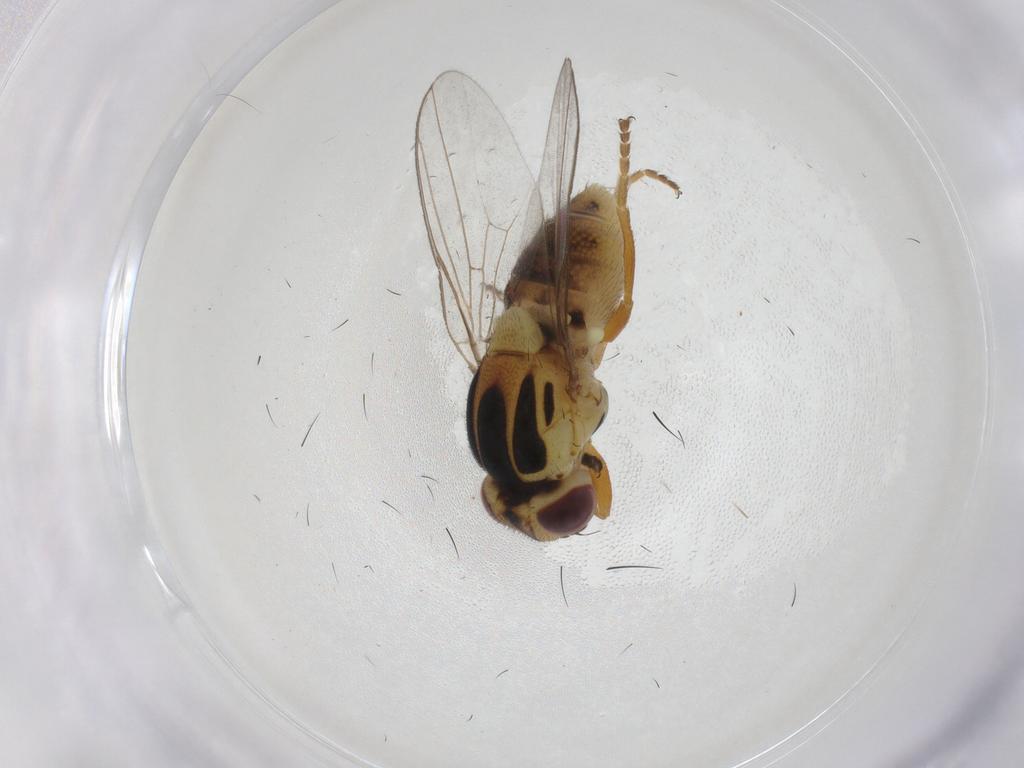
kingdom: Animalia
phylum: Arthropoda
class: Insecta
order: Diptera
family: Chloropidae
